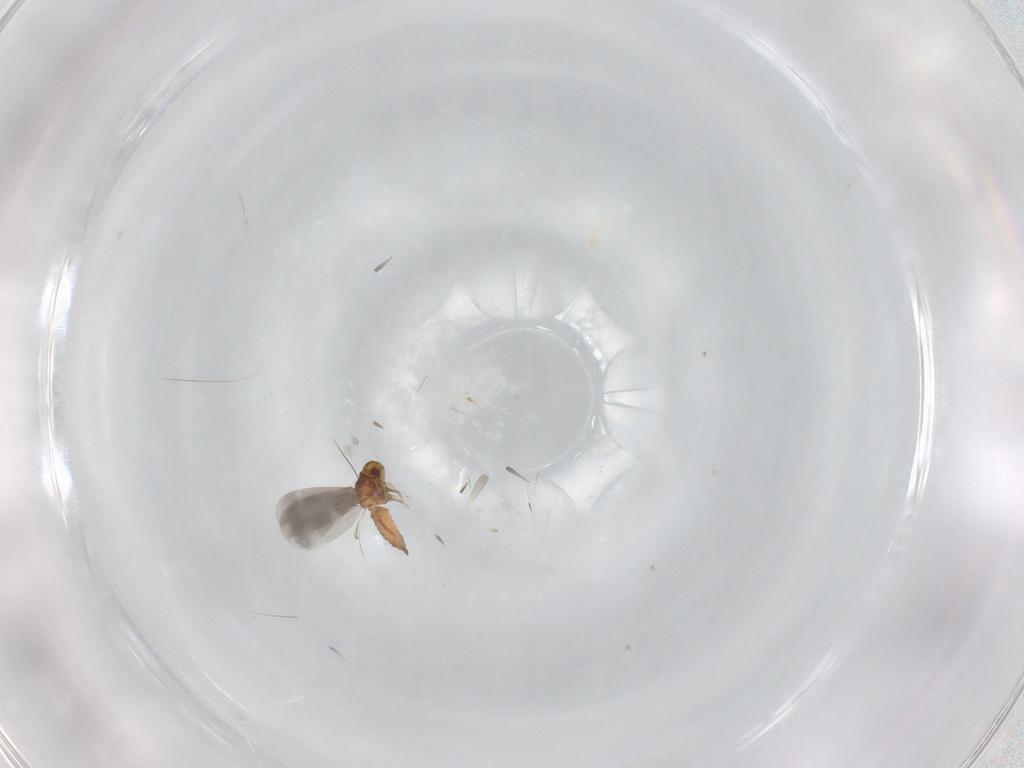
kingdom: Animalia
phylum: Arthropoda
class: Insecta
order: Hemiptera
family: Aleyrodidae
